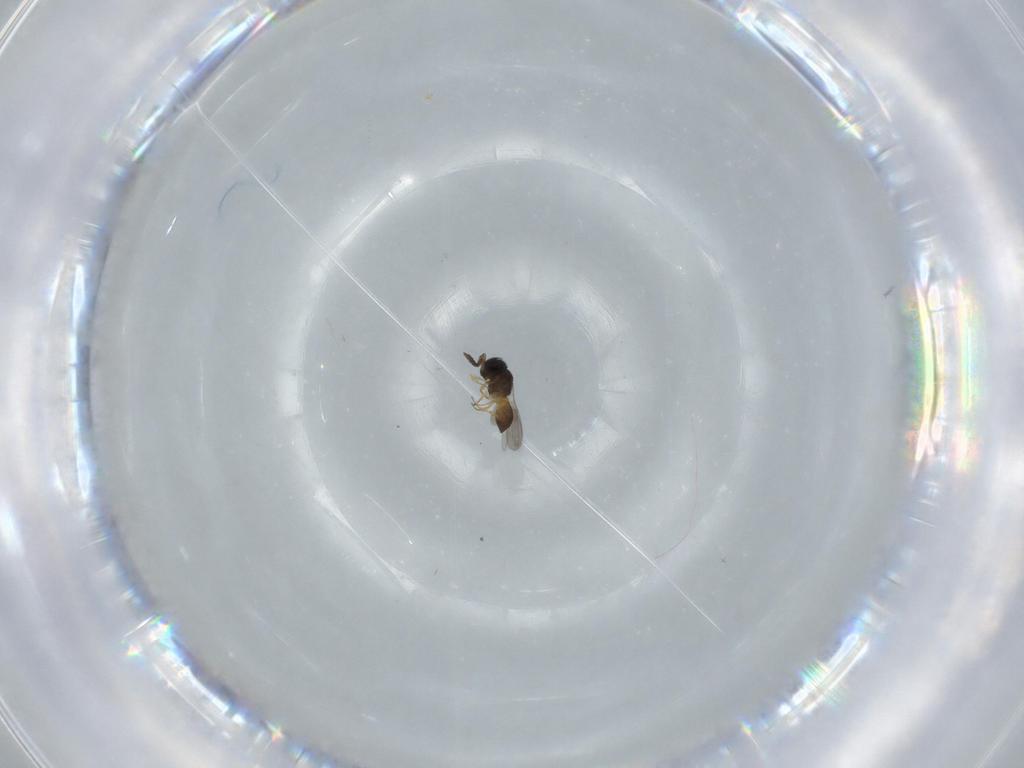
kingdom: Animalia
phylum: Arthropoda
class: Insecta
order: Hymenoptera
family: Scelionidae
